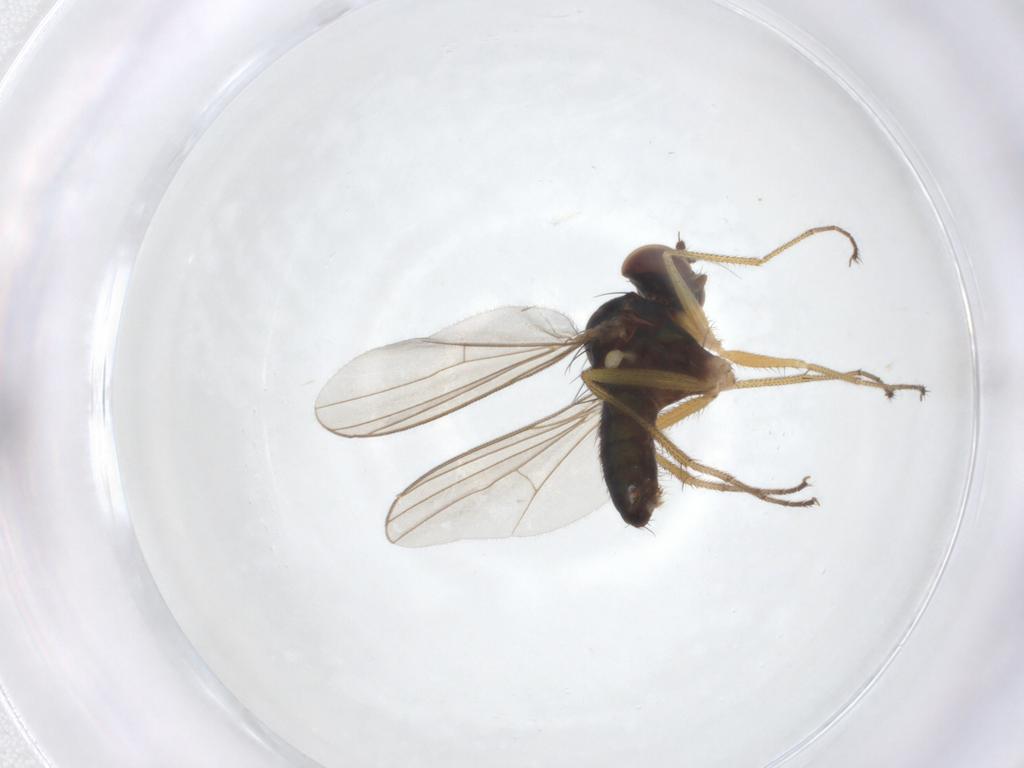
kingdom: Animalia
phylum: Arthropoda
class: Insecta
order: Diptera
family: Dolichopodidae
